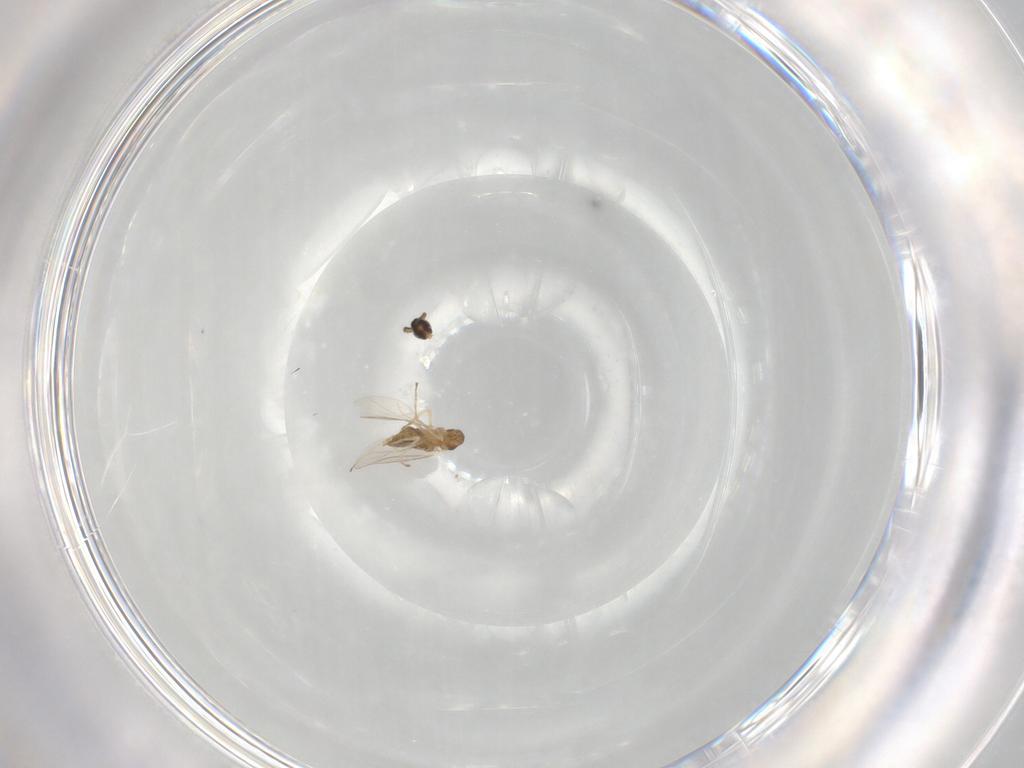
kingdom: Animalia
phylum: Arthropoda
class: Insecta
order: Diptera
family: Cecidomyiidae
